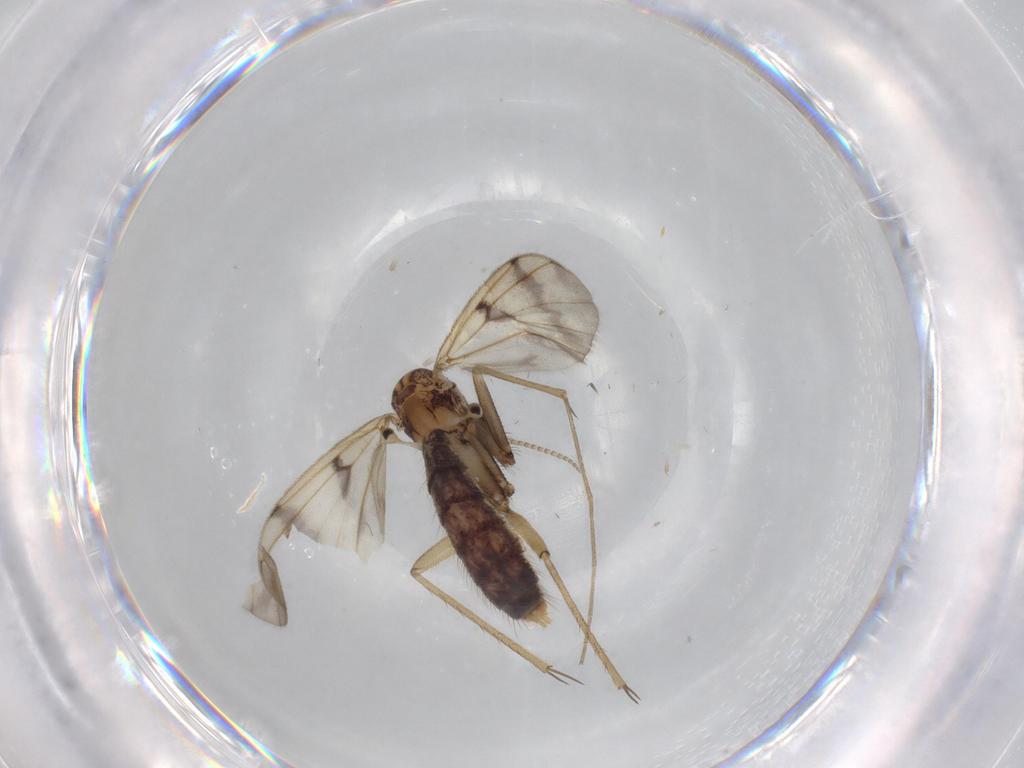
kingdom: Animalia
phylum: Arthropoda
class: Insecta
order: Diptera
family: Mycetophilidae
